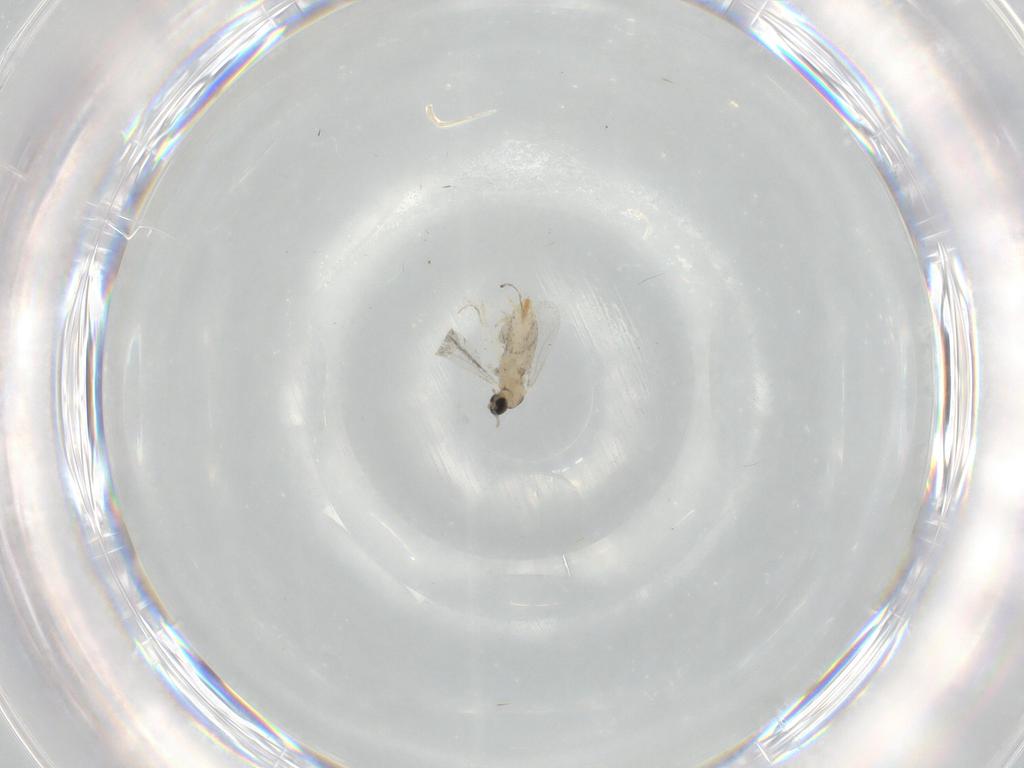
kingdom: Animalia
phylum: Arthropoda
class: Insecta
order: Diptera
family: Cecidomyiidae
